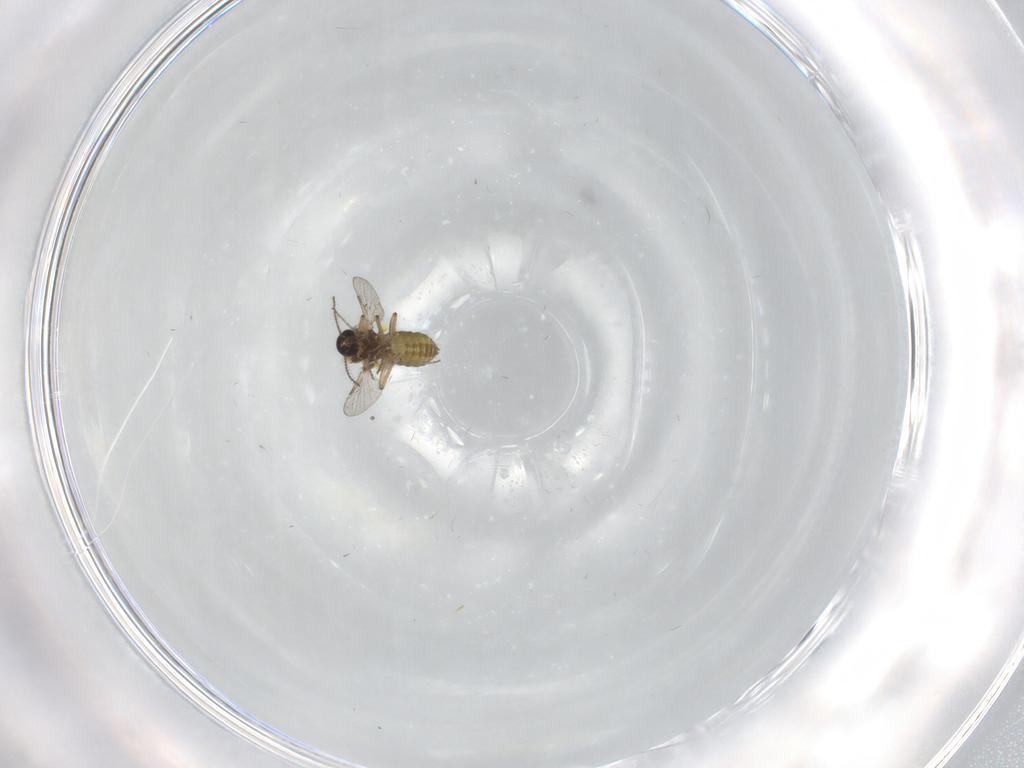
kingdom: Animalia
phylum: Arthropoda
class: Insecta
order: Diptera
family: Ceratopogonidae
